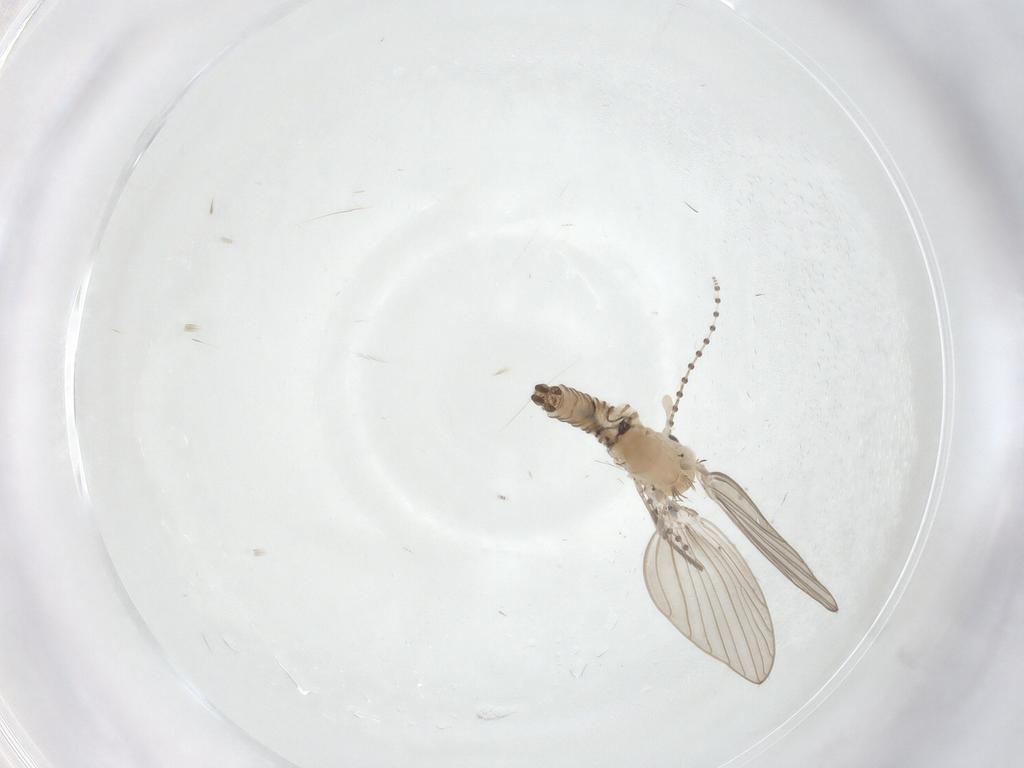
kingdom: Animalia
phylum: Arthropoda
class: Insecta
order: Diptera
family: Psychodidae
